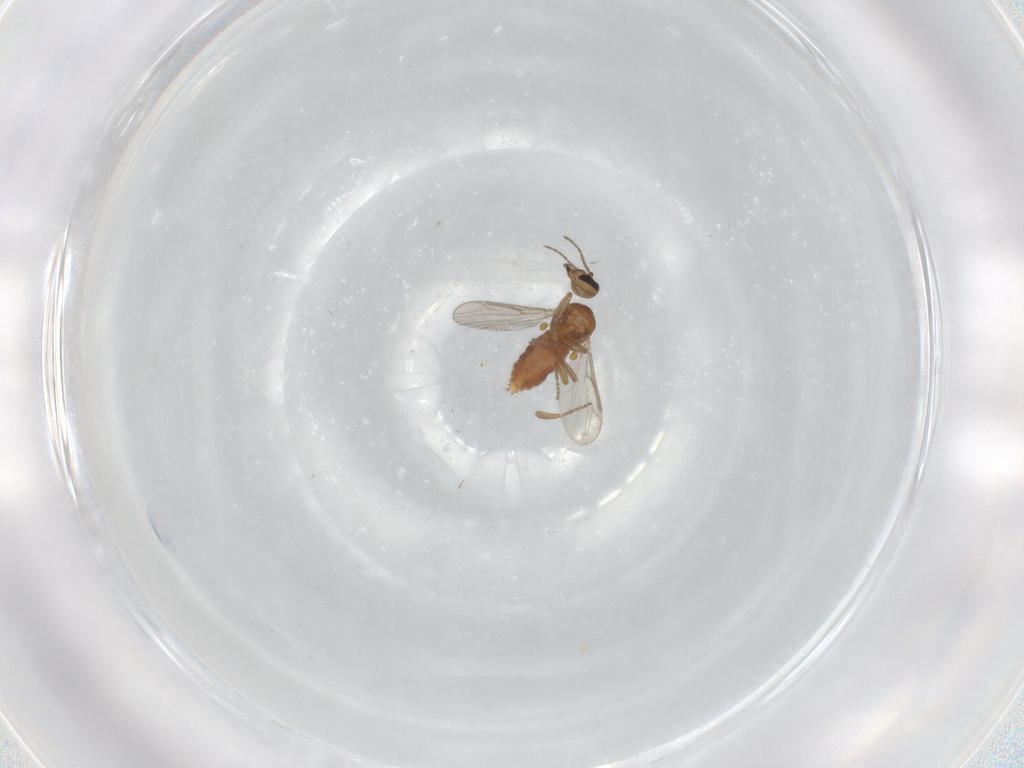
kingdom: Animalia
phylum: Arthropoda
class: Insecta
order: Diptera
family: Ceratopogonidae
